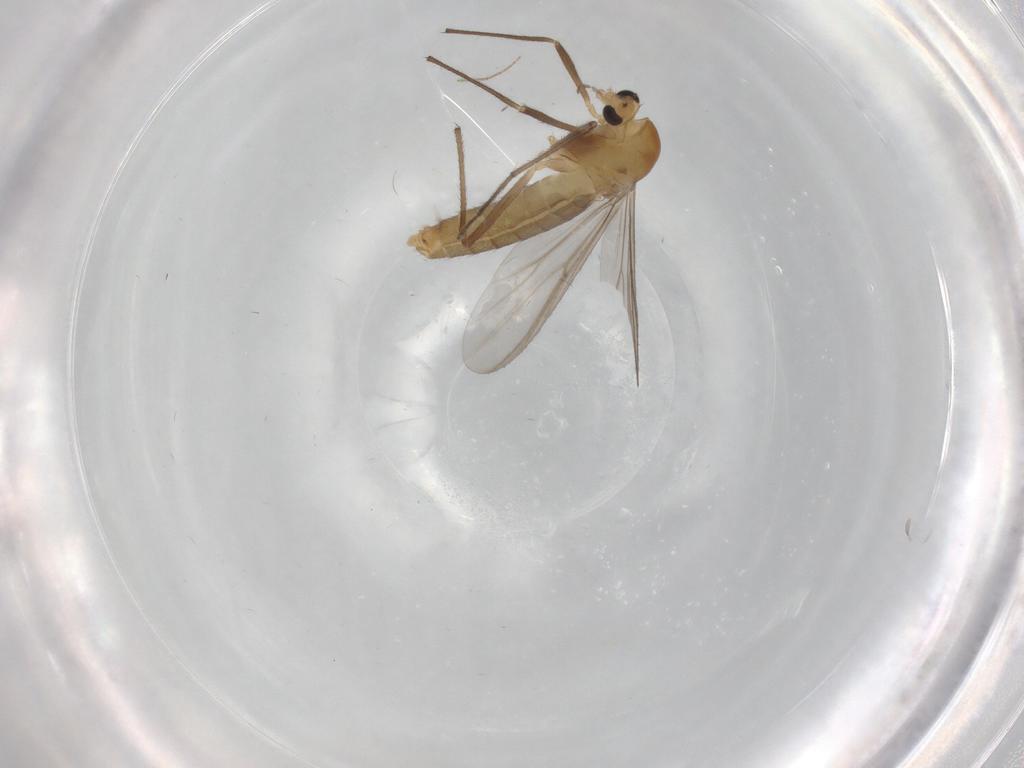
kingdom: Animalia
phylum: Arthropoda
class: Insecta
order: Diptera
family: Chironomidae
